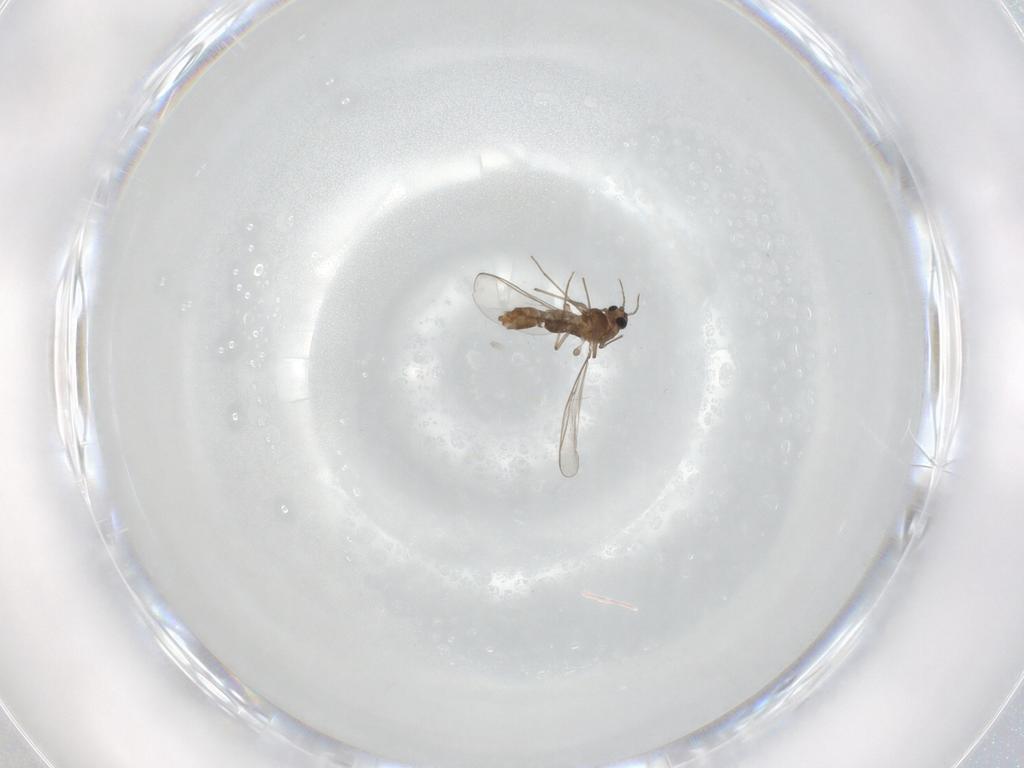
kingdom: Animalia
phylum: Arthropoda
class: Insecta
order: Diptera
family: Chironomidae
